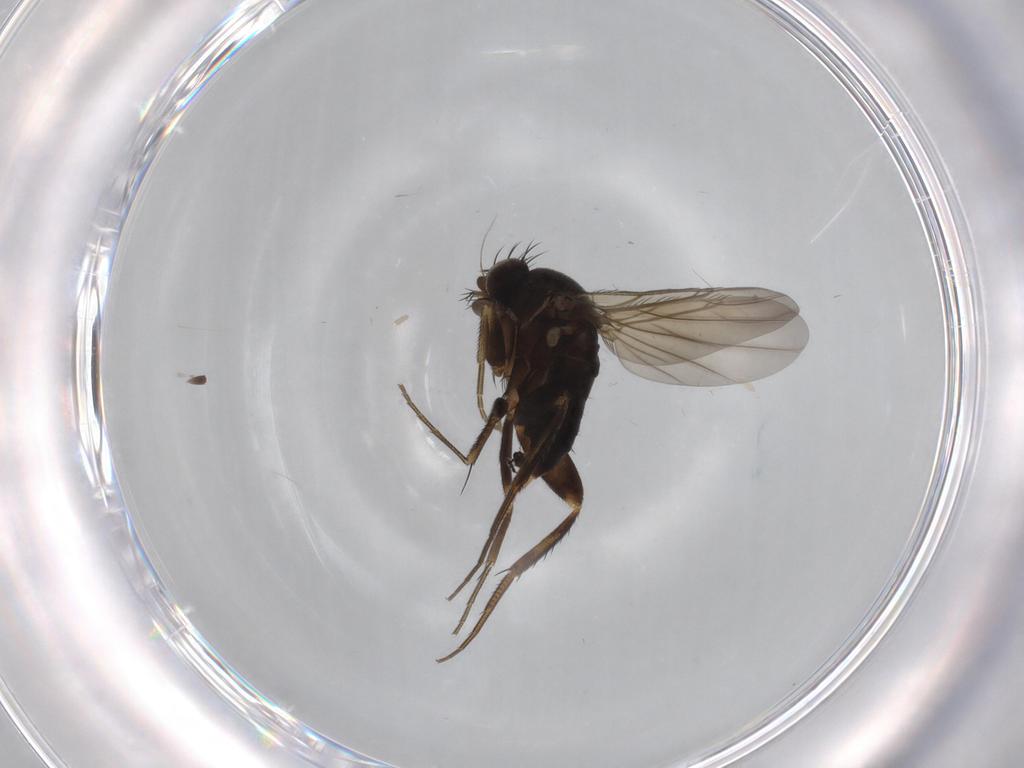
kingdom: Animalia
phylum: Arthropoda
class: Insecta
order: Diptera
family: Phoridae
